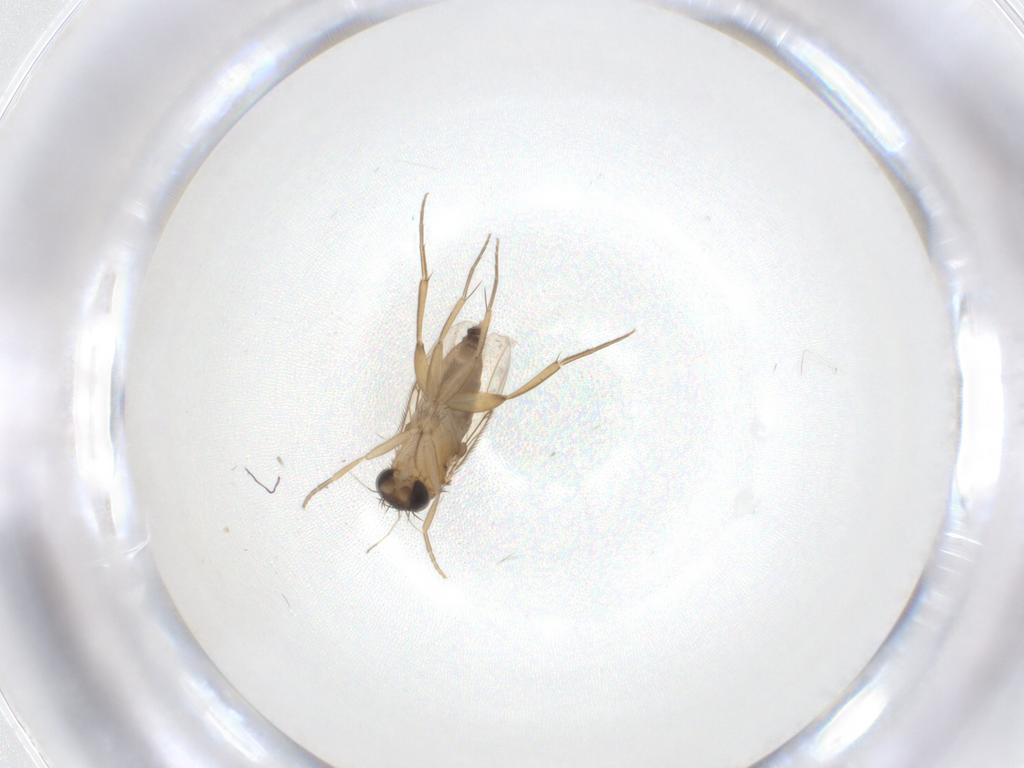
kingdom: Animalia
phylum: Arthropoda
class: Insecta
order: Diptera
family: Phoridae
